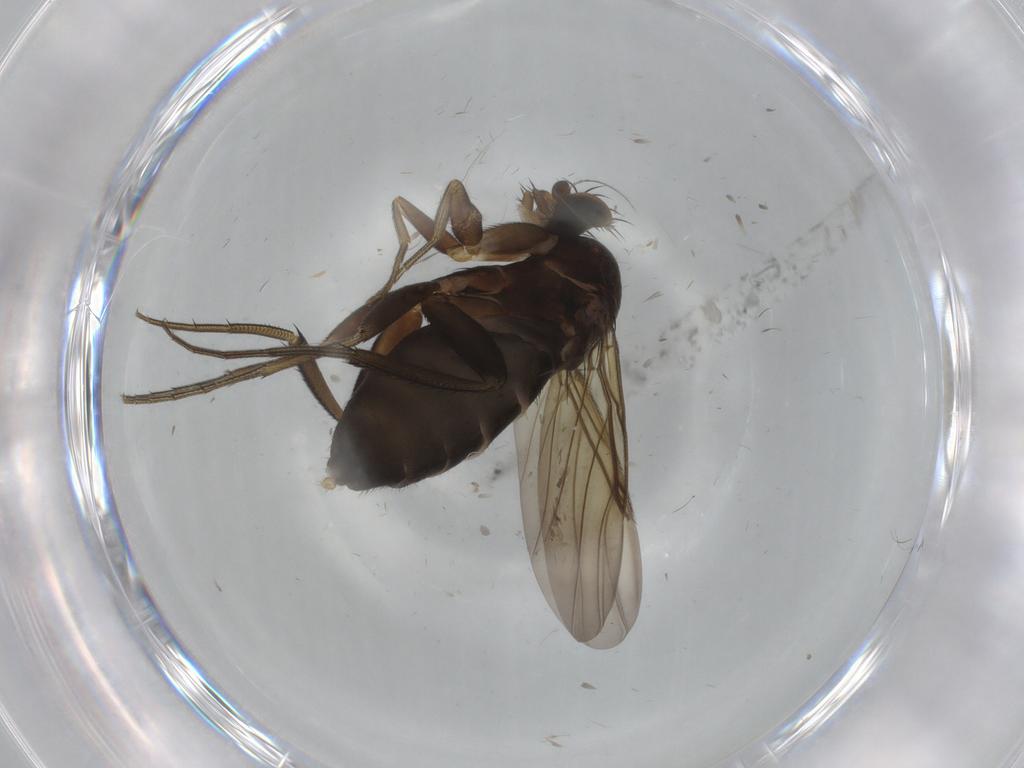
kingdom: Animalia
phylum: Arthropoda
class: Insecta
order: Diptera
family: Phoridae
